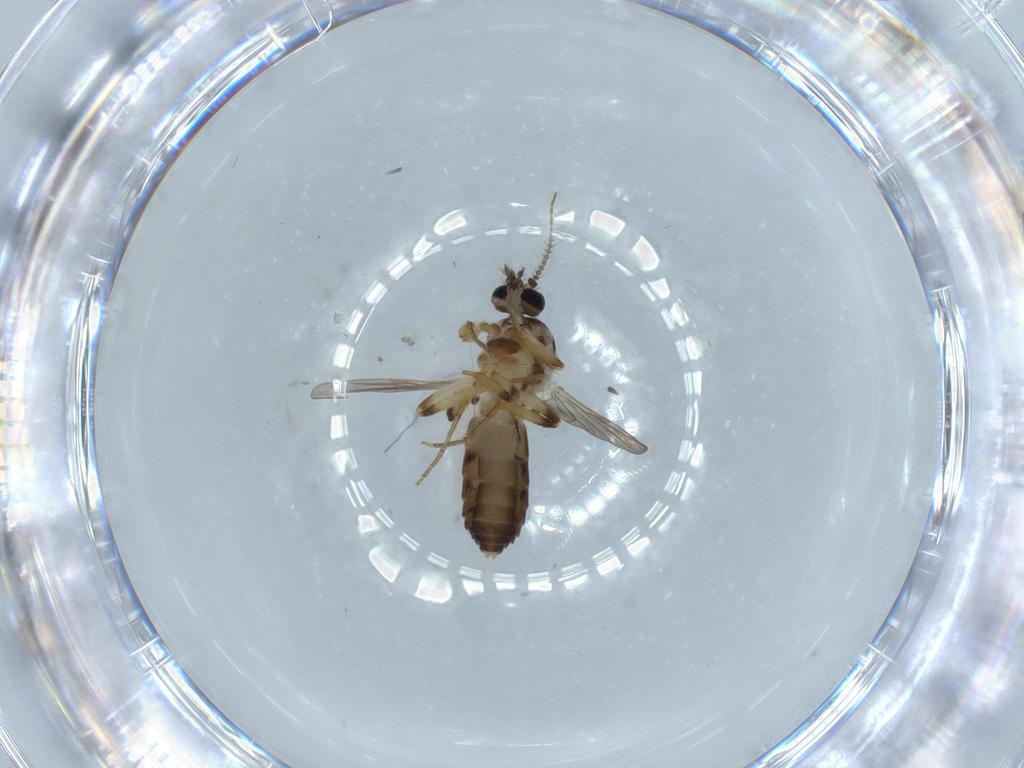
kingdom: Animalia
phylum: Arthropoda
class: Insecta
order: Diptera
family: Ceratopogonidae
